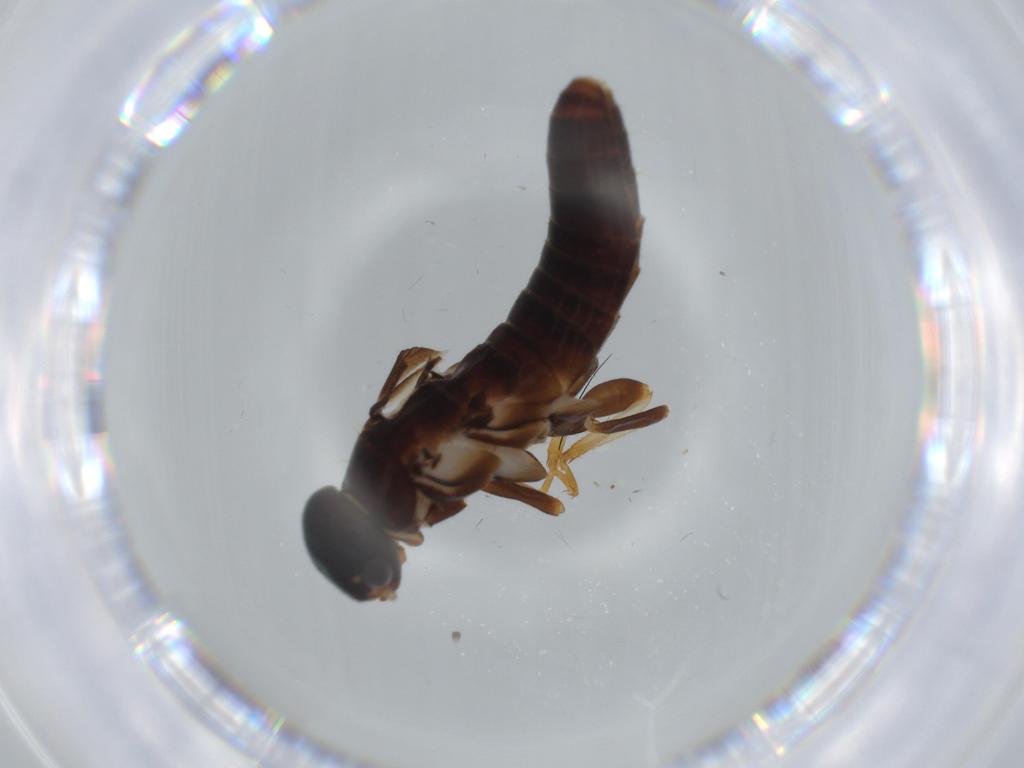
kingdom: Animalia
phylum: Arthropoda
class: Insecta
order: Blattodea
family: Termitidae
